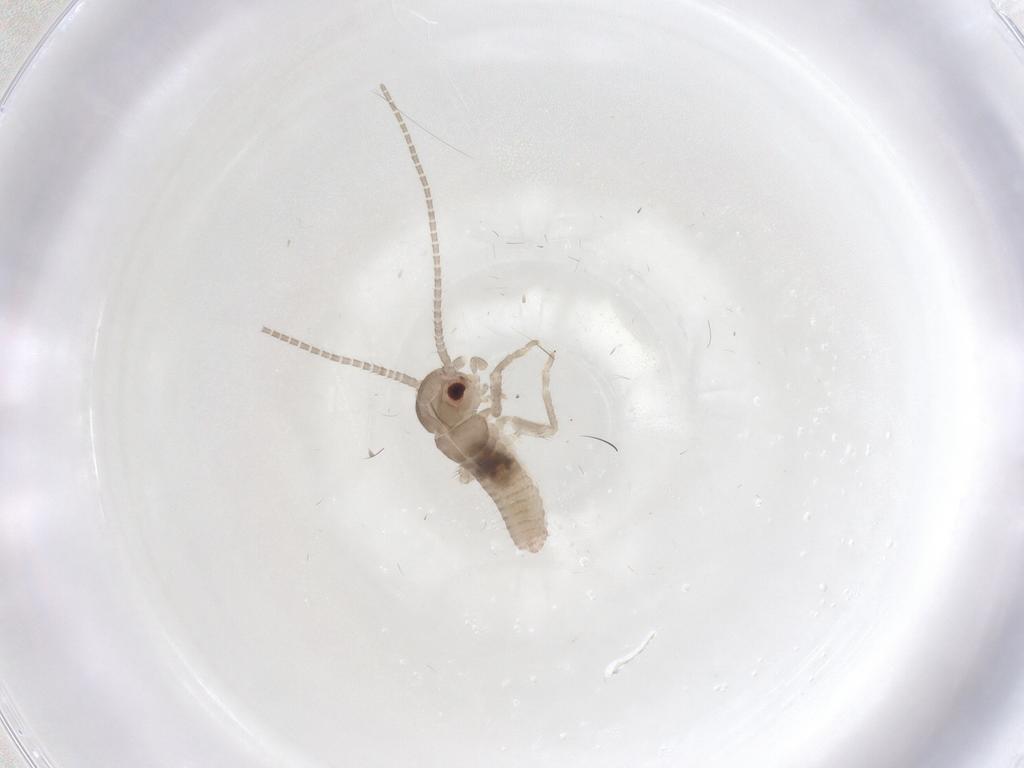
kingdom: Animalia
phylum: Arthropoda
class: Insecta
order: Orthoptera
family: Mogoplistidae
